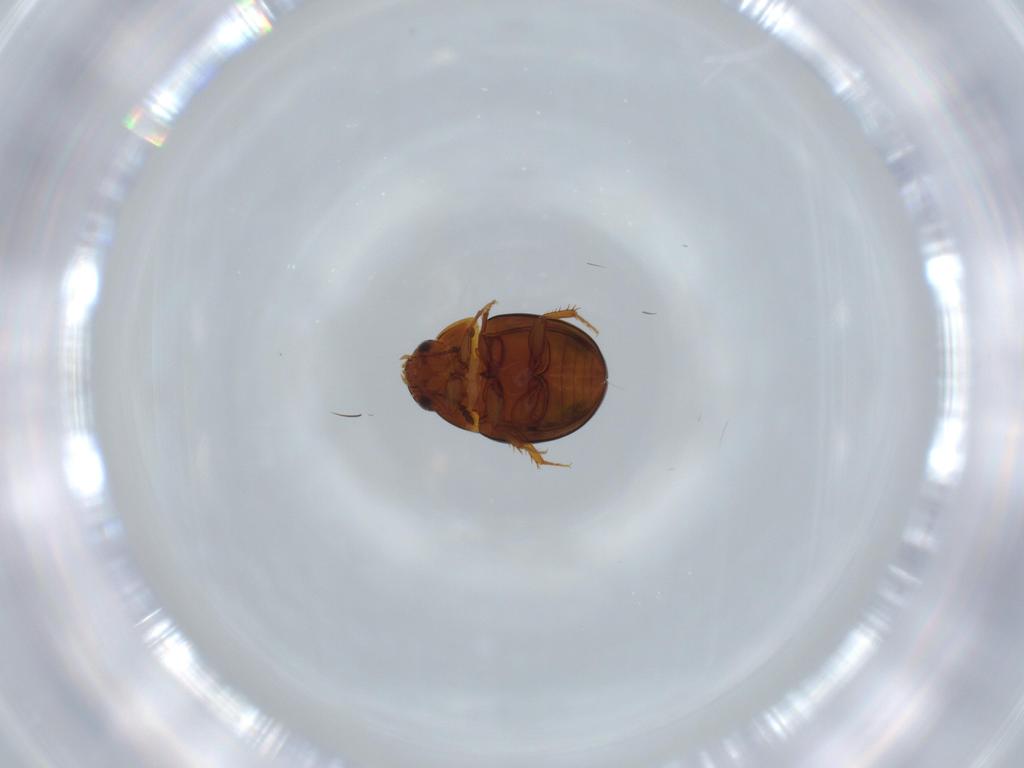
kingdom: Animalia
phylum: Arthropoda
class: Insecta
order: Coleoptera
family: Leiodidae
